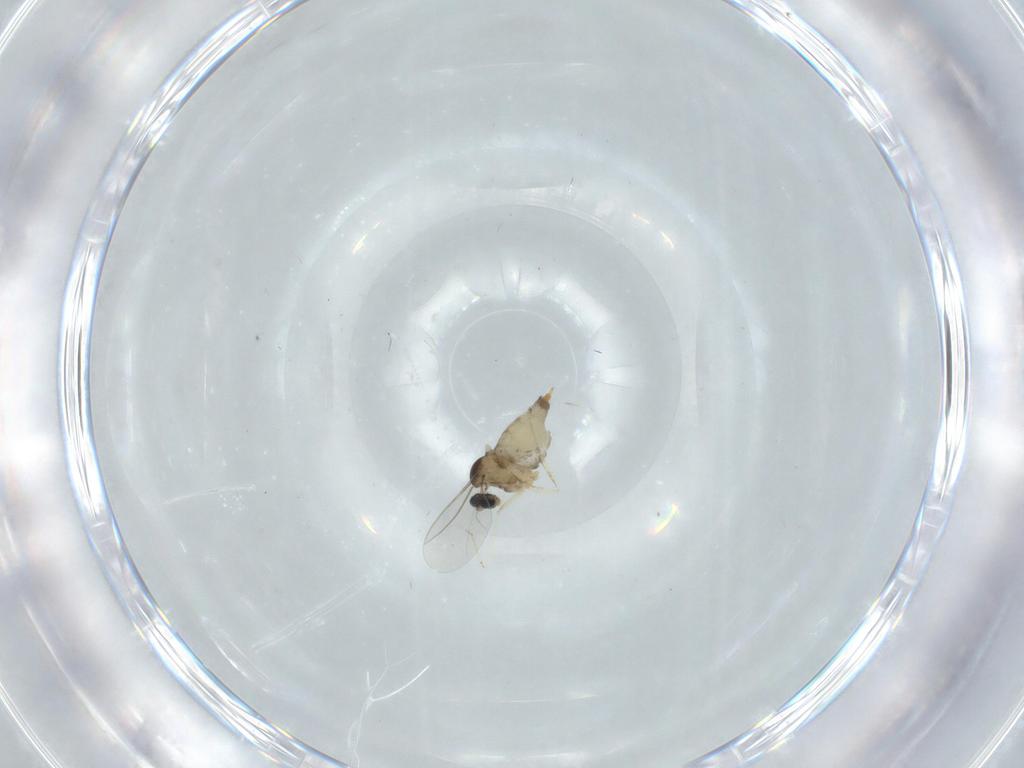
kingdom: Animalia
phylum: Arthropoda
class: Insecta
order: Diptera
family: Cecidomyiidae
